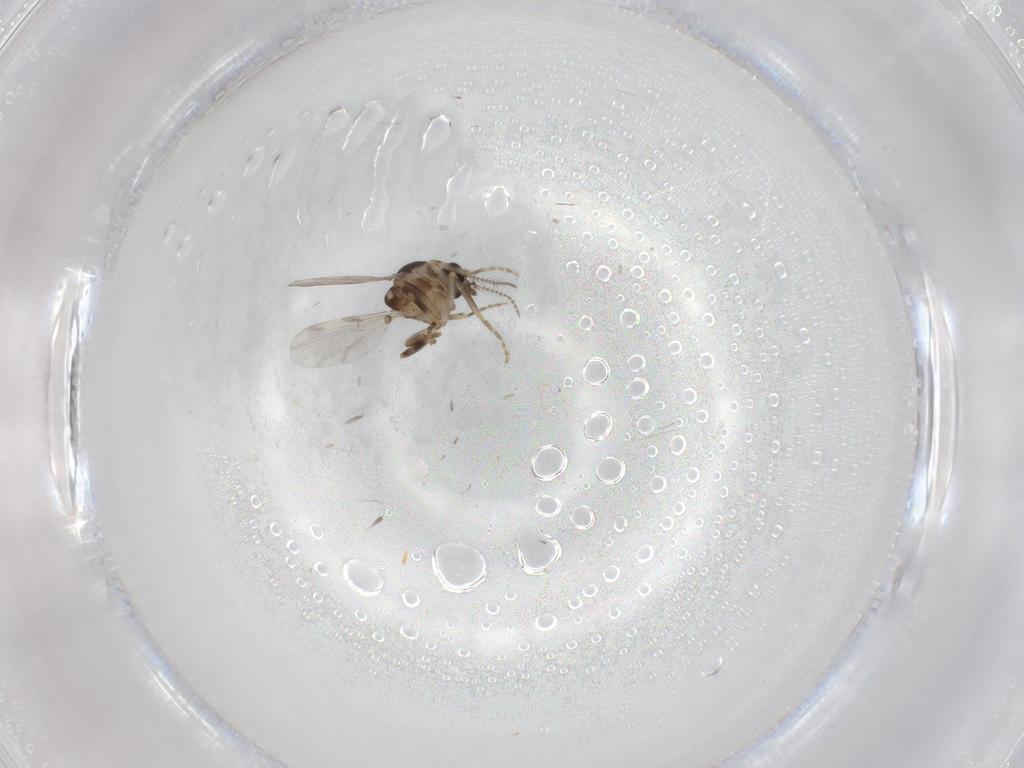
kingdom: Animalia
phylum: Arthropoda
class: Insecta
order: Diptera
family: Ceratopogonidae
